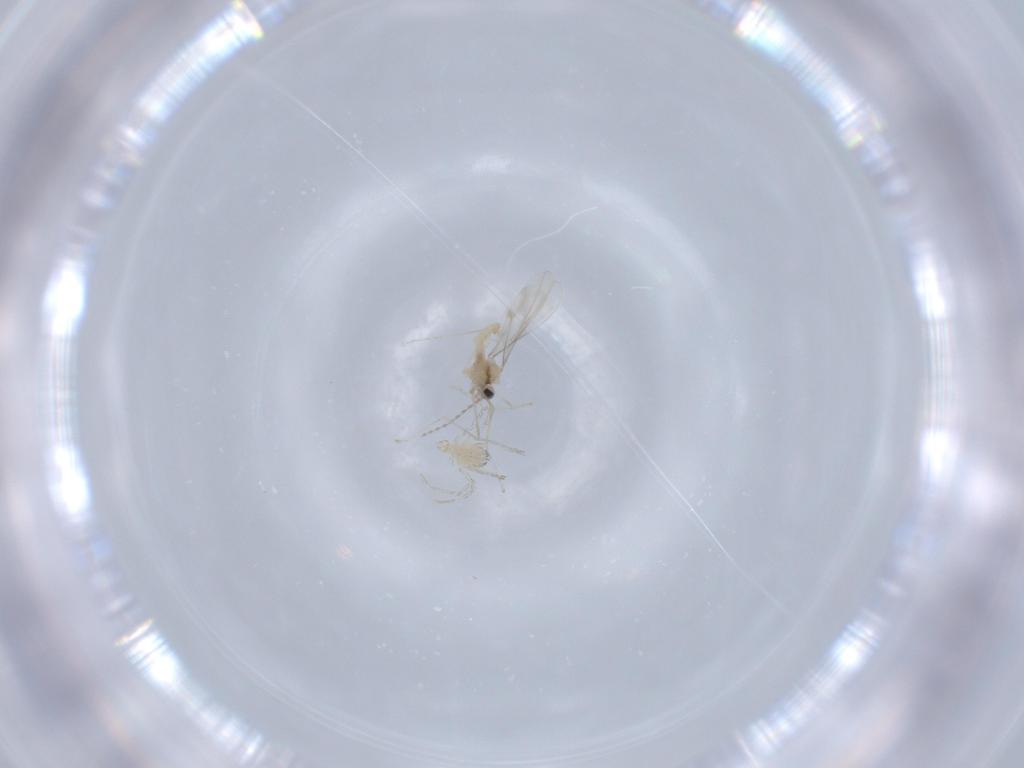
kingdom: Animalia
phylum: Arthropoda
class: Insecta
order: Diptera
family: Cecidomyiidae
